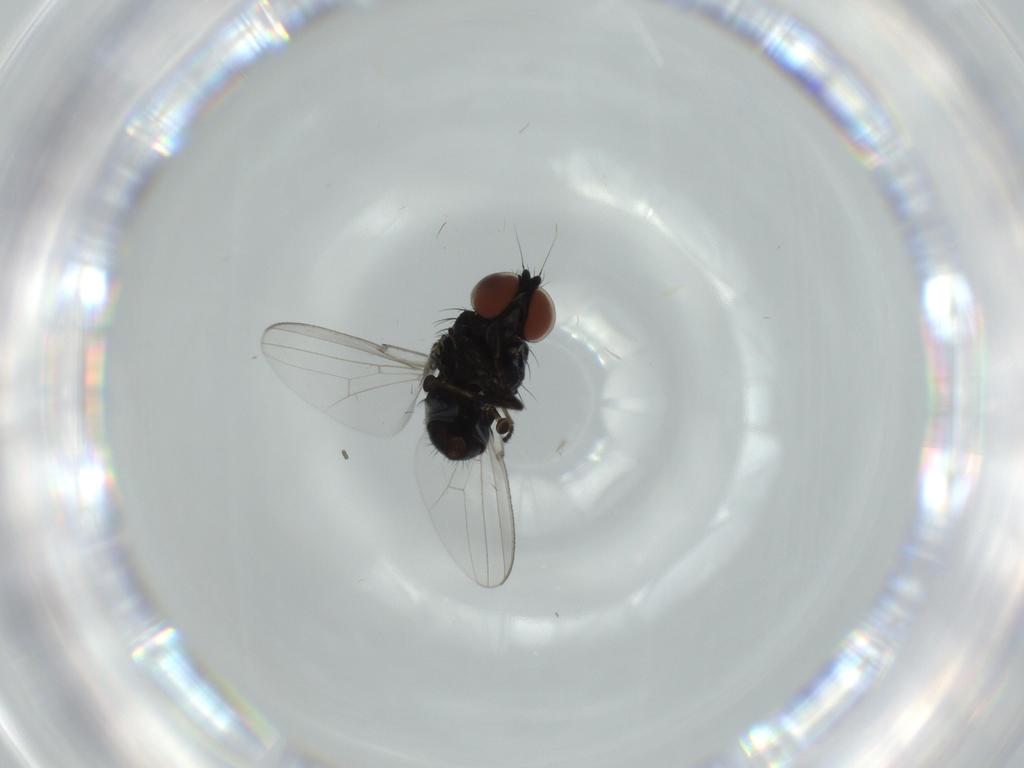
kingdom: Animalia
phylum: Arthropoda
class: Insecta
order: Diptera
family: Milichiidae
